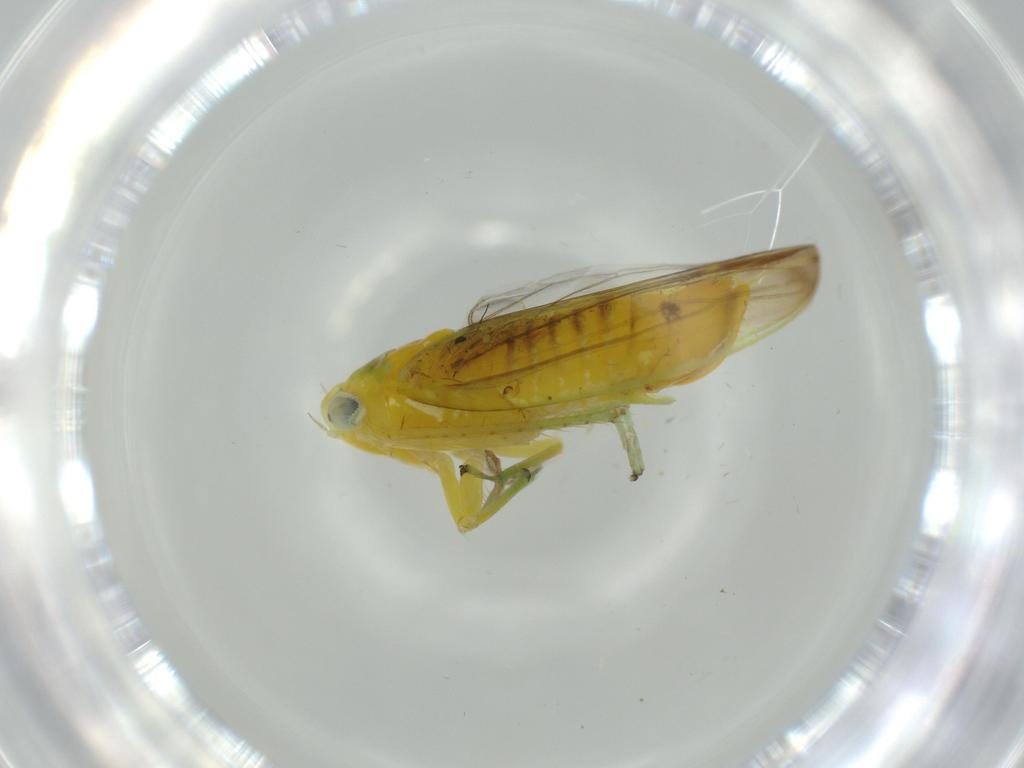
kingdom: Animalia
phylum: Arthropoda
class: Insecta
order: Hemiptera
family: Cicadellidae
